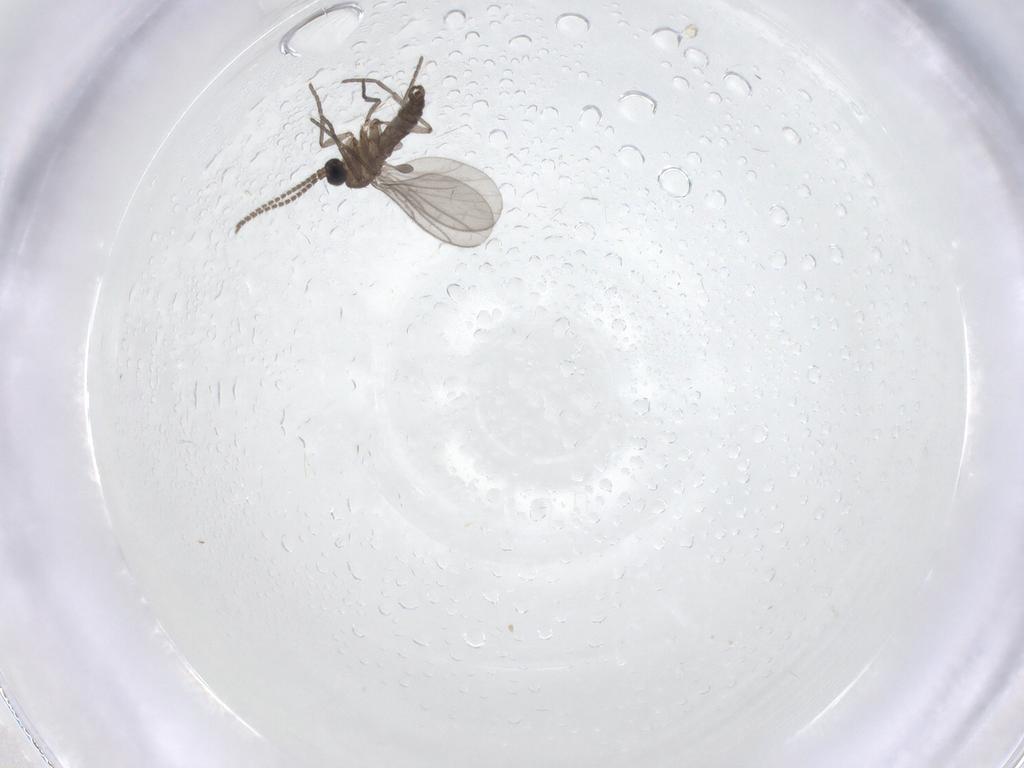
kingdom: Animalia
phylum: Arthropoda
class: Insecta
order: Diptera
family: Sciaridae
